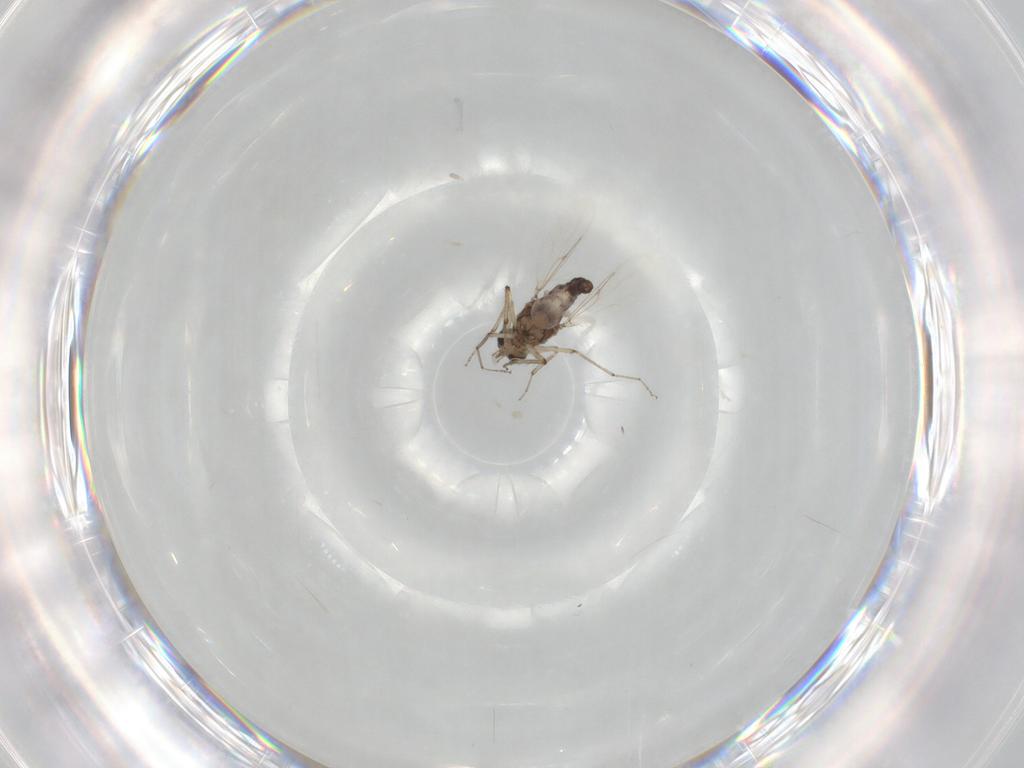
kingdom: Animalia
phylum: Arthropoda
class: Insecta
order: Diptera
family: Ceratopogonidae
